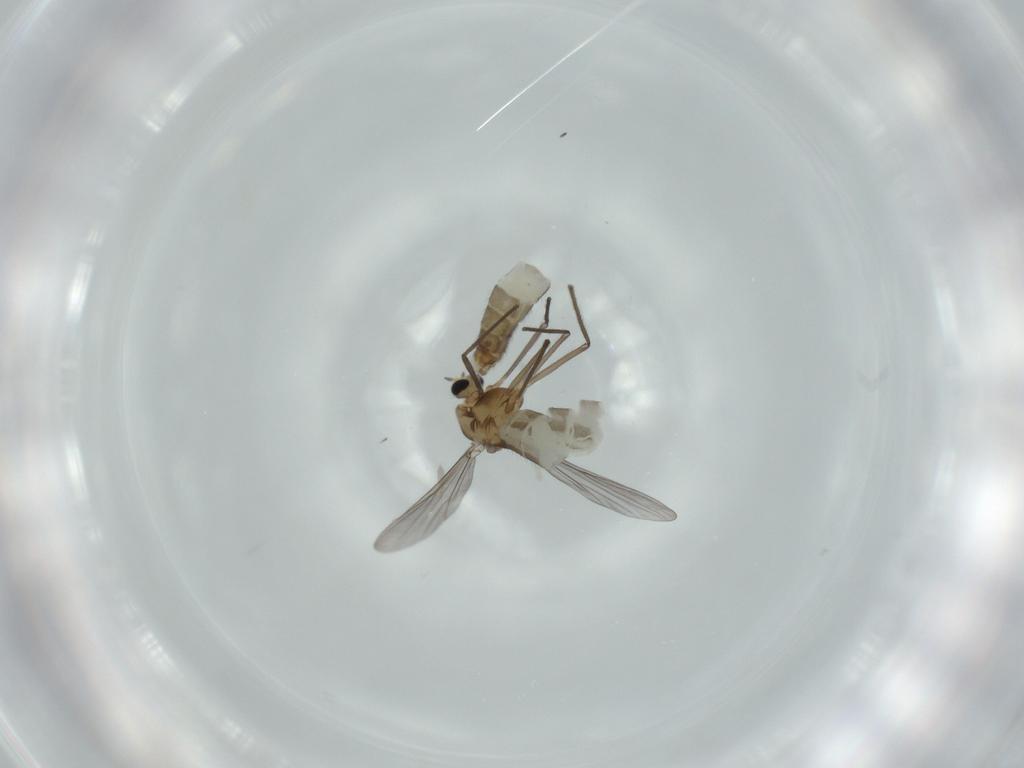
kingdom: Animalia
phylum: Arthropoda
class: Insecta
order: Diptera
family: Chironomidae
